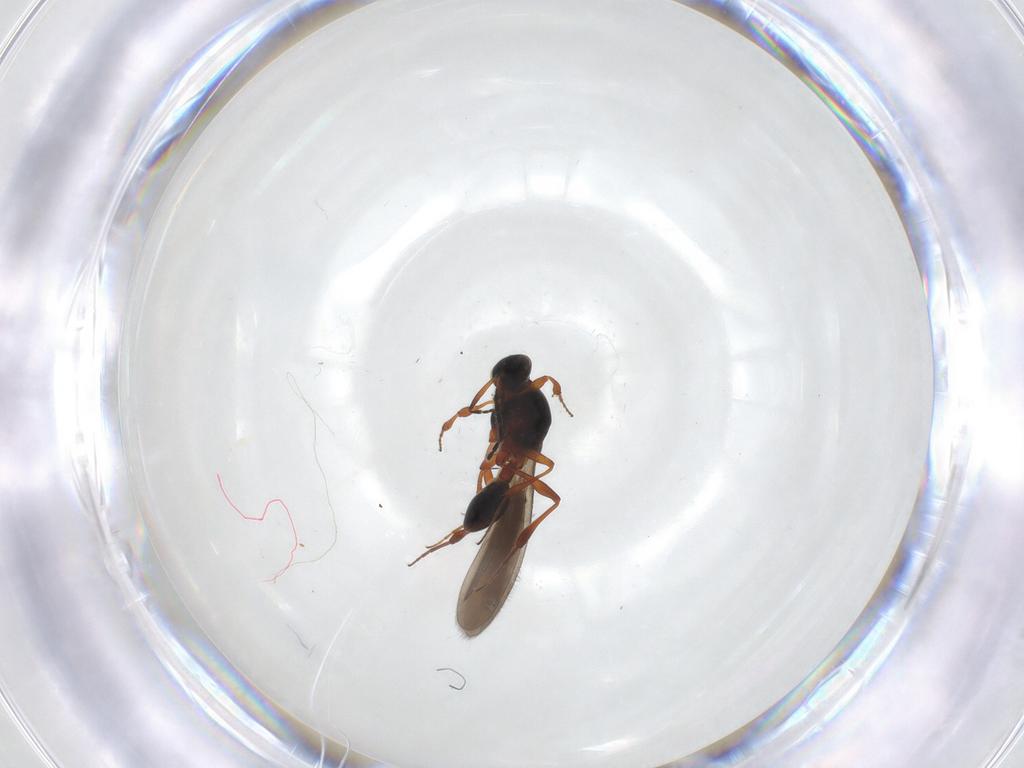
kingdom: Animalia
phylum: Arthropoda
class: Insecta
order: Hymenoptera
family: Platygastridae
